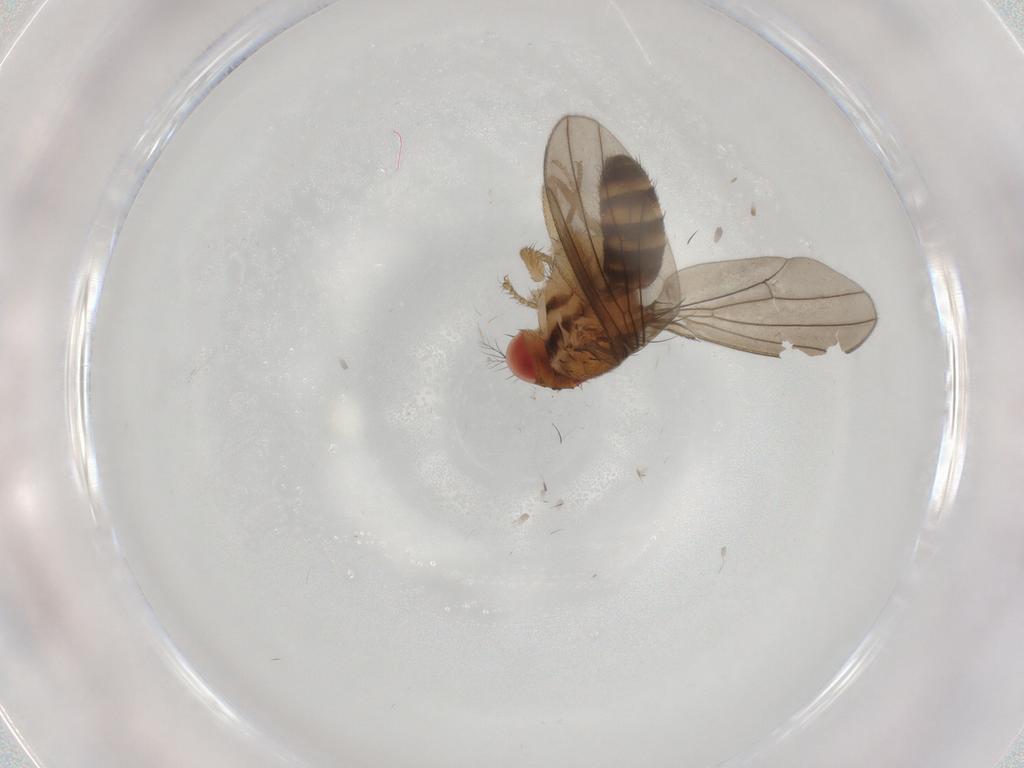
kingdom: Animalia
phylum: Arthropoda
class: Insecta
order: Diptera
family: Drosophilidae
